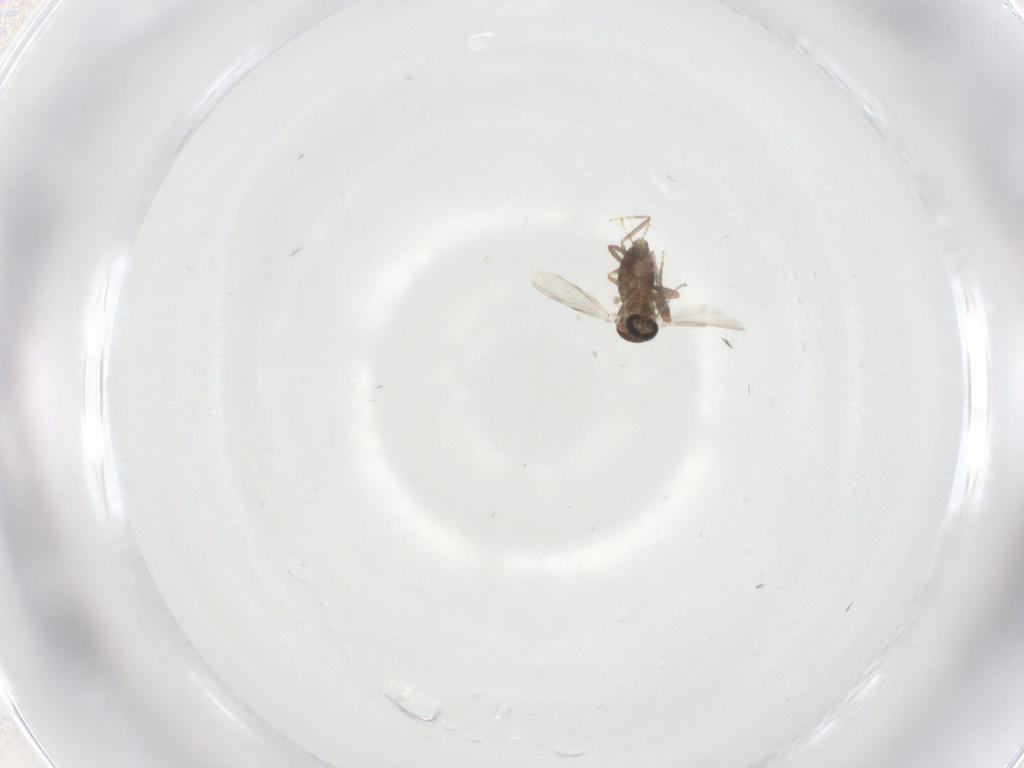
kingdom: Animalia
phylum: Arthropoda
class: Insecta
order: Diptera
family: Ceratopogonidae
